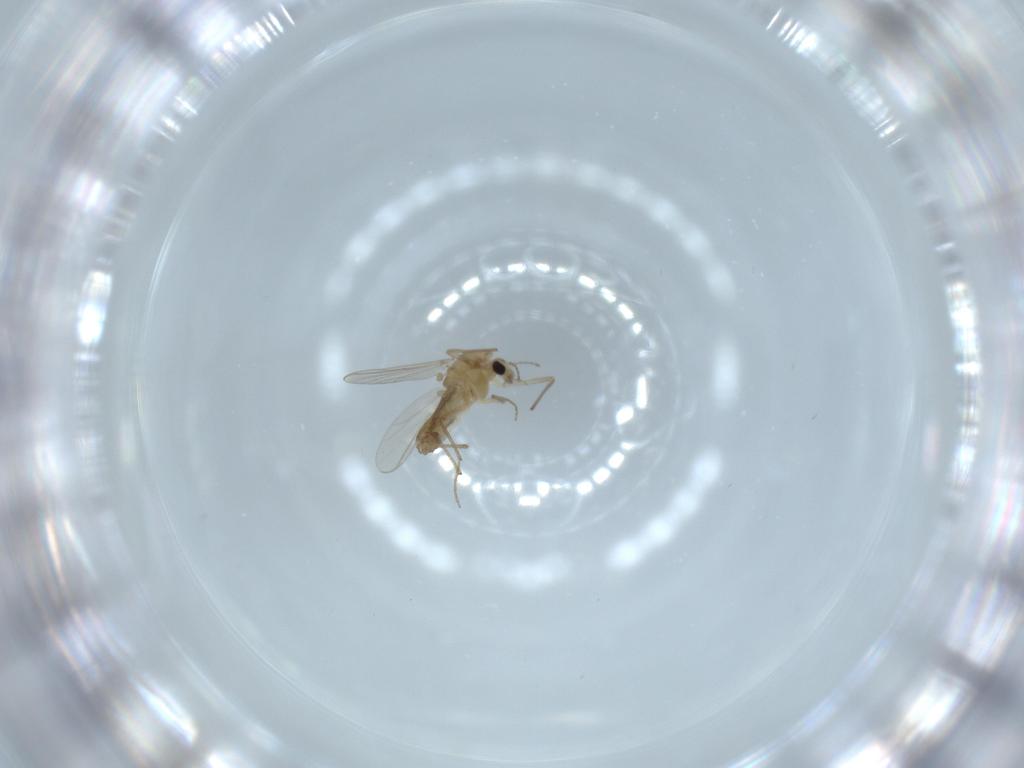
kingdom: Animalia
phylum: Arthropoda
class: Insecta
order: Diptera
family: Chironomidae
